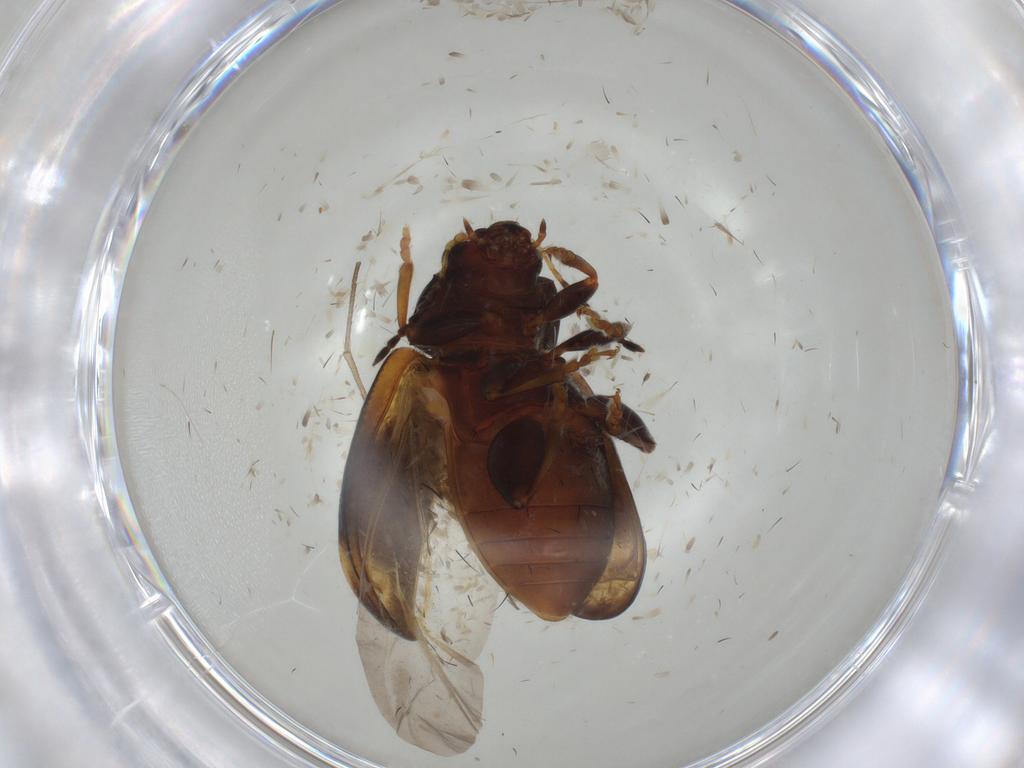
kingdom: Animalia
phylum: Arthropoda
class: Insecta
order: Coleoptera
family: Chrysomelidae
